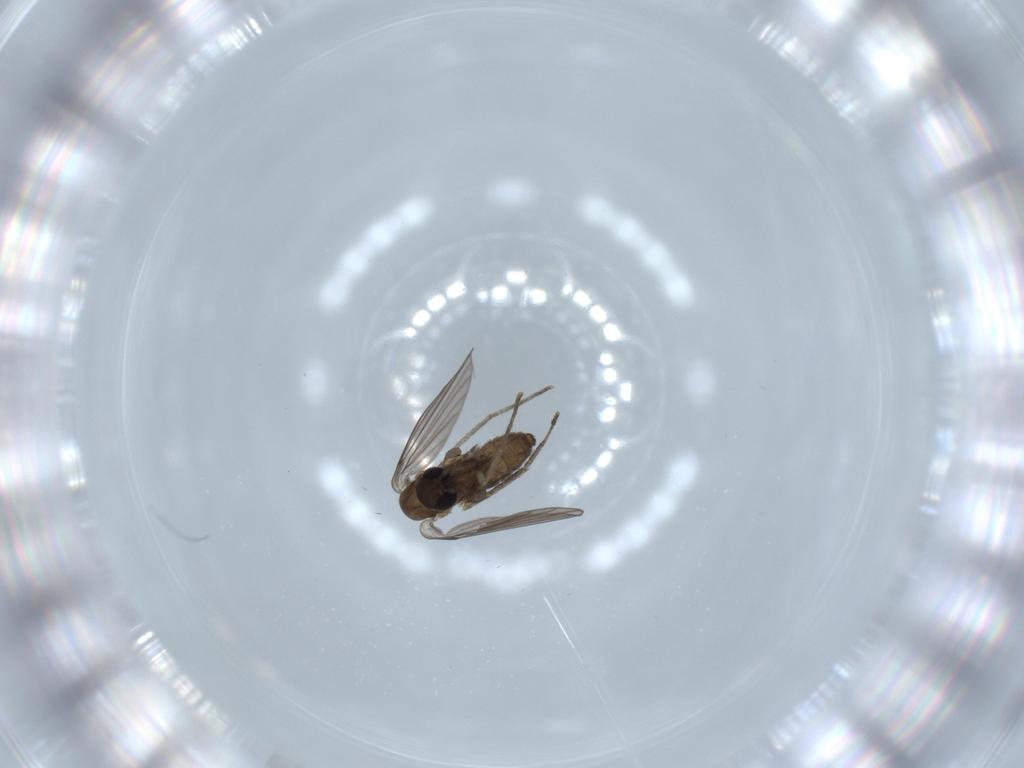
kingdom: Animalia
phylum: Arthropoda
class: Insecta
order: Diptera
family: Psychodidae
